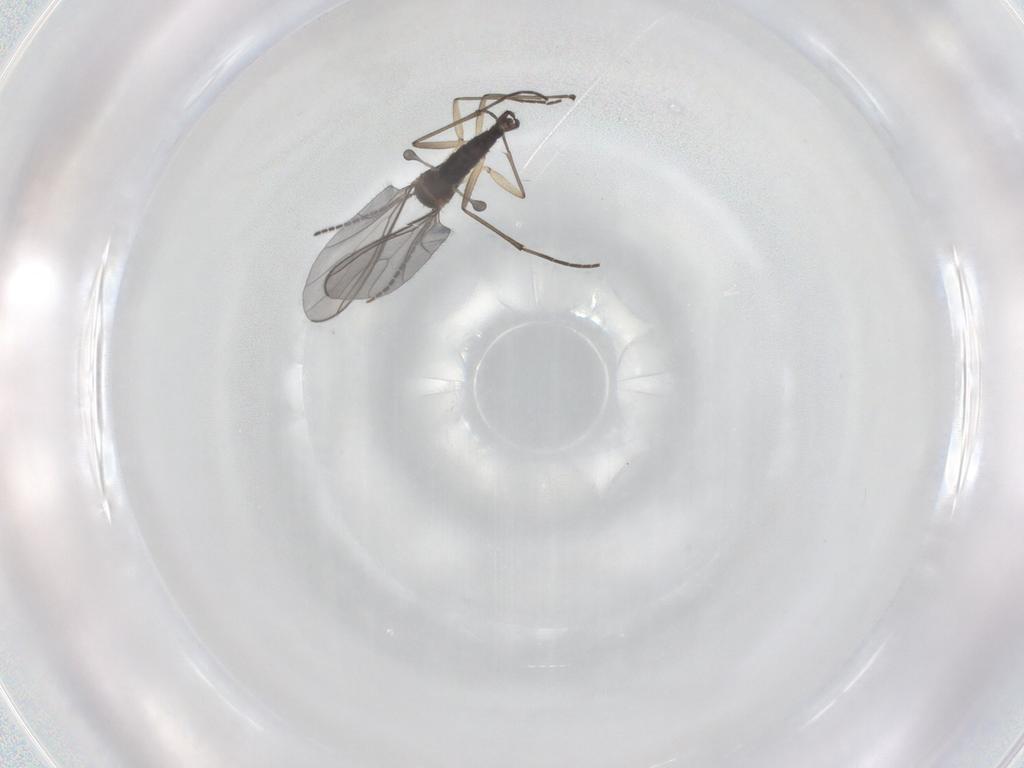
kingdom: Animalia
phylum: Arthropoda
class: Insecta
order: Diptera
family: Sciaridae
